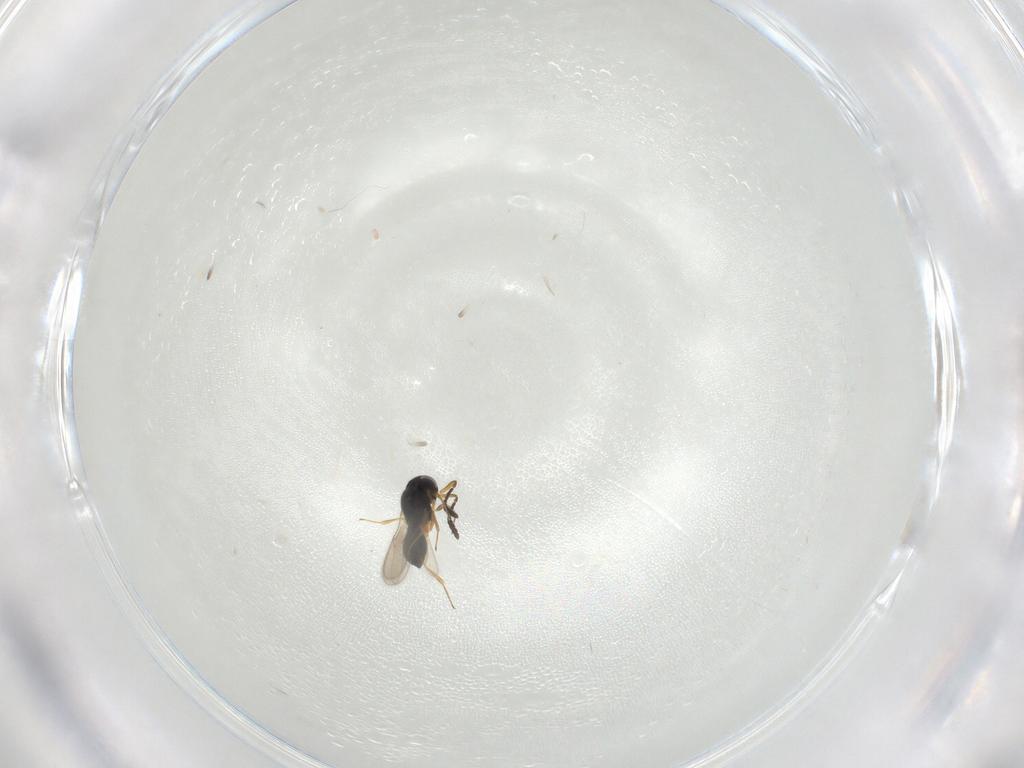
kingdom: Animalia
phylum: Arthropoda
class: Insecta
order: Hymenoptera
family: Scelionidae
